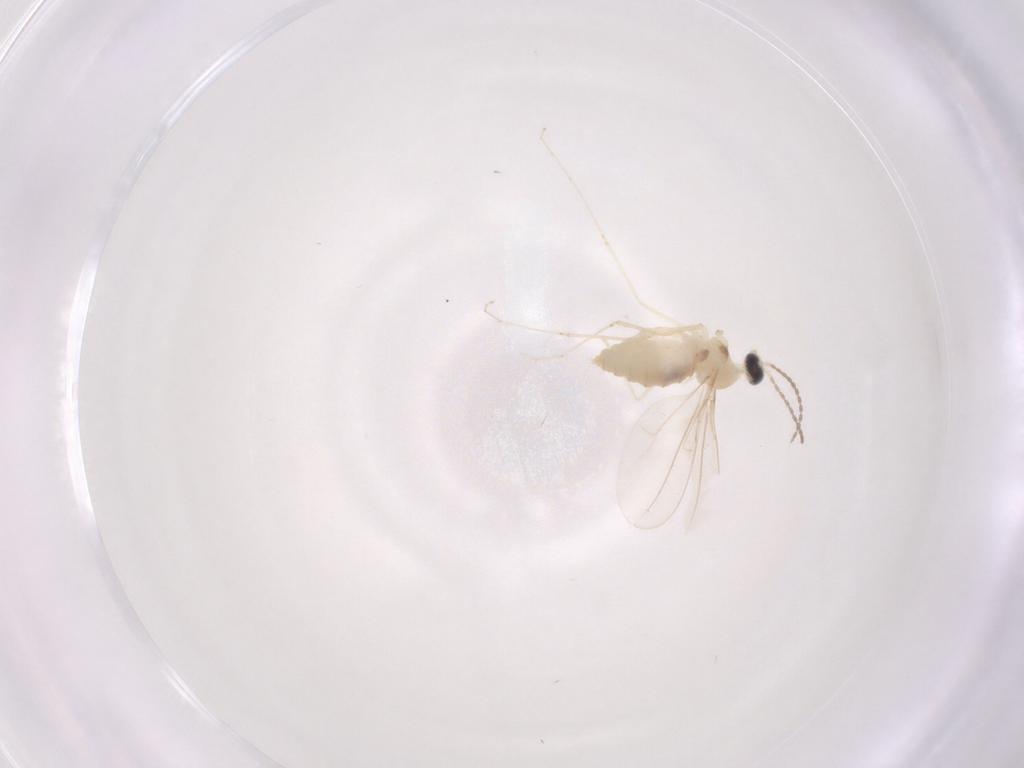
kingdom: Animalia
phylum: Arthropoda
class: Insecta
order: Diptera
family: Cecidomyiidae
